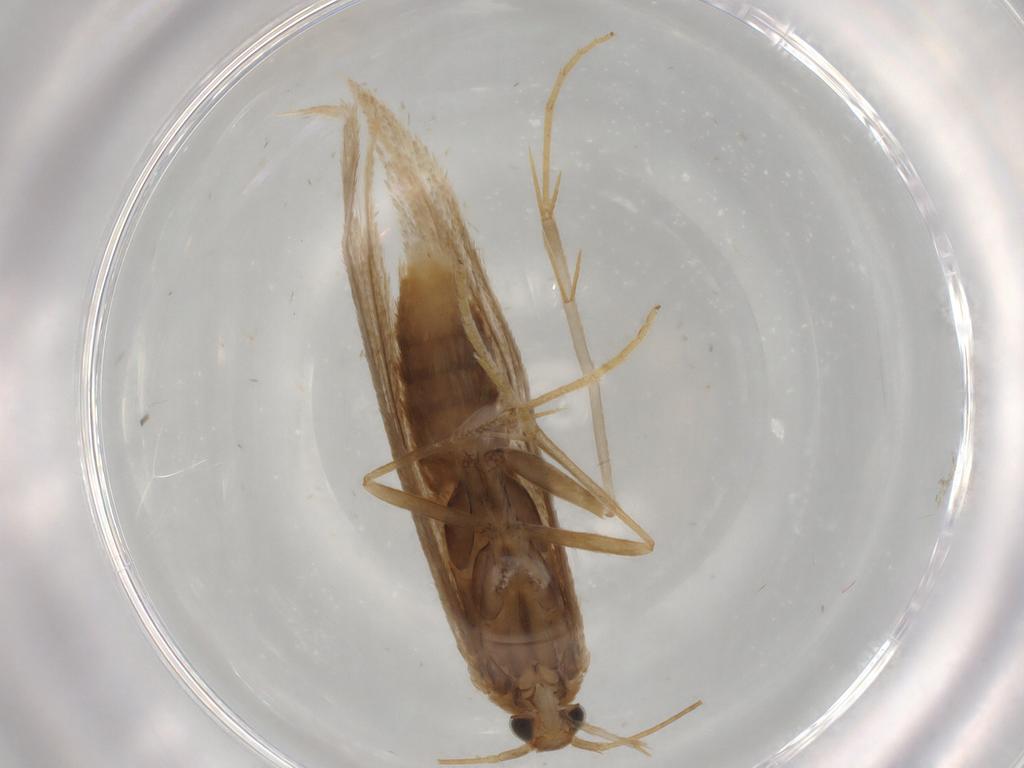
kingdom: Animalia
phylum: Arthropoda
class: Insecta
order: Lepidoptera
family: Coleophoridae
